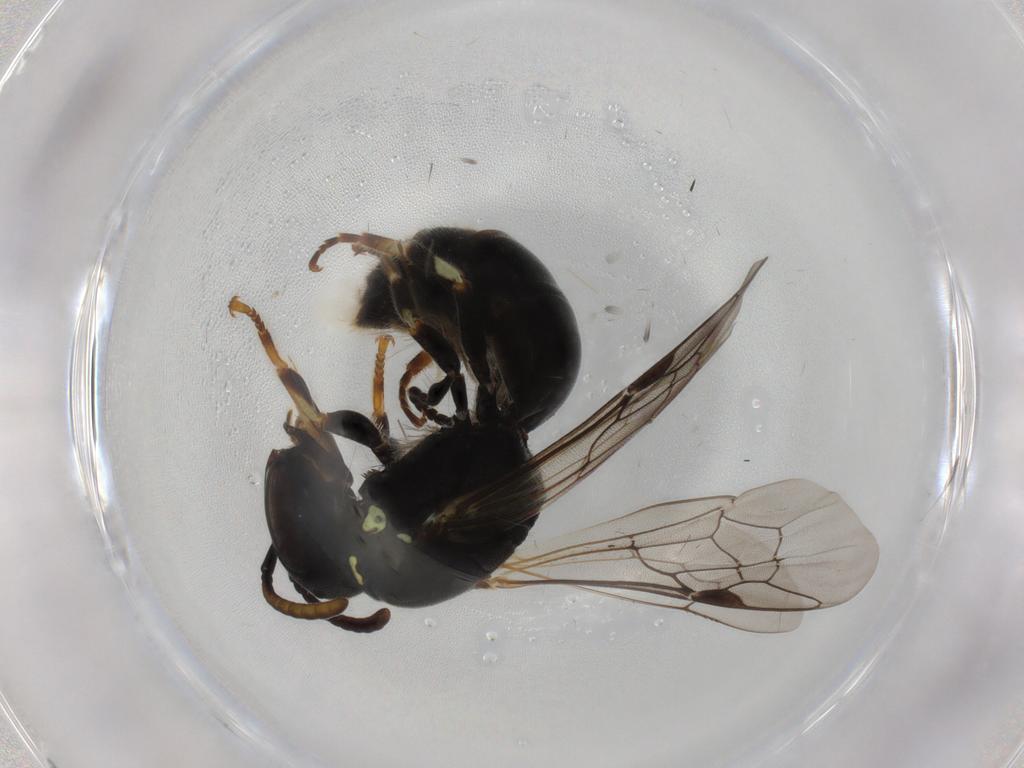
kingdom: Animalia
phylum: Arthropoda
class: Insecta
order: Hymenoptera
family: Colletidae
